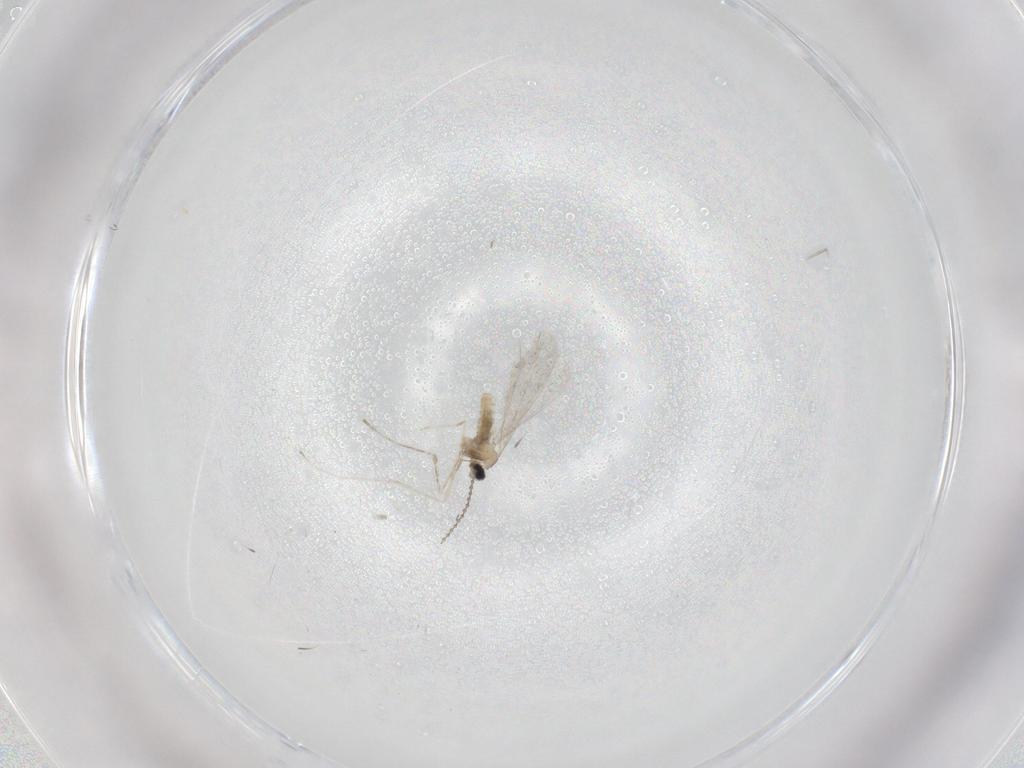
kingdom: Animalia
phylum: Arthropoda
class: Insecta
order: Diptera
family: Cecidomyiidae
